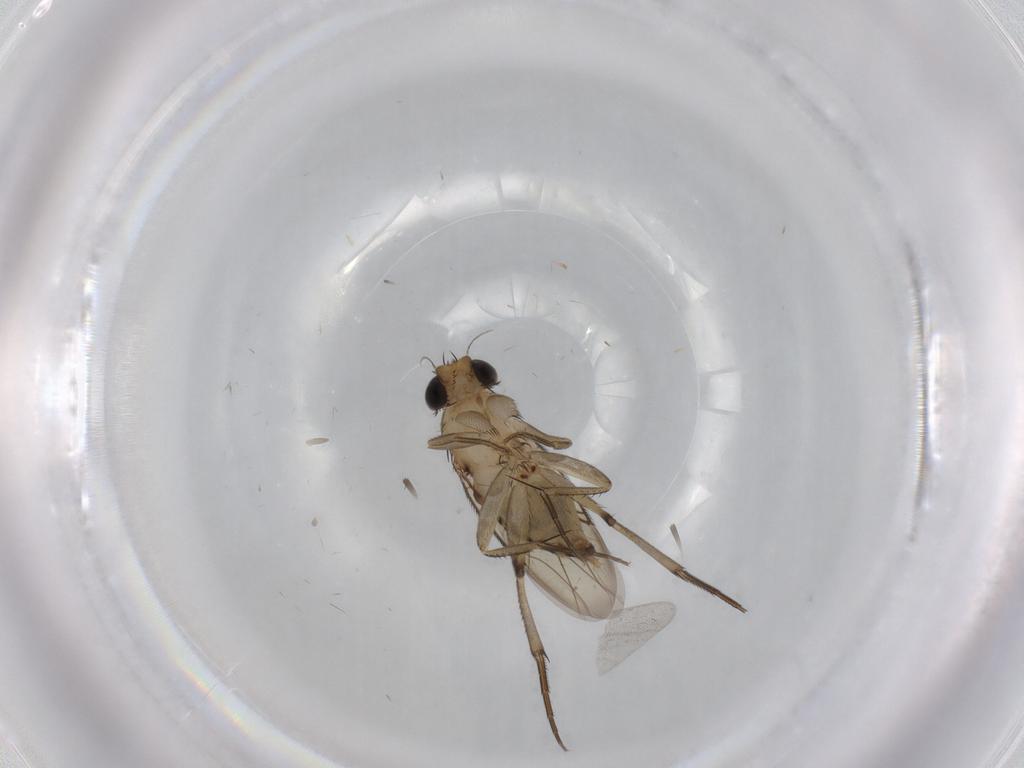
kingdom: Animalia
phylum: Arthropoda
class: Insecta
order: Diptera
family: Phoridae
